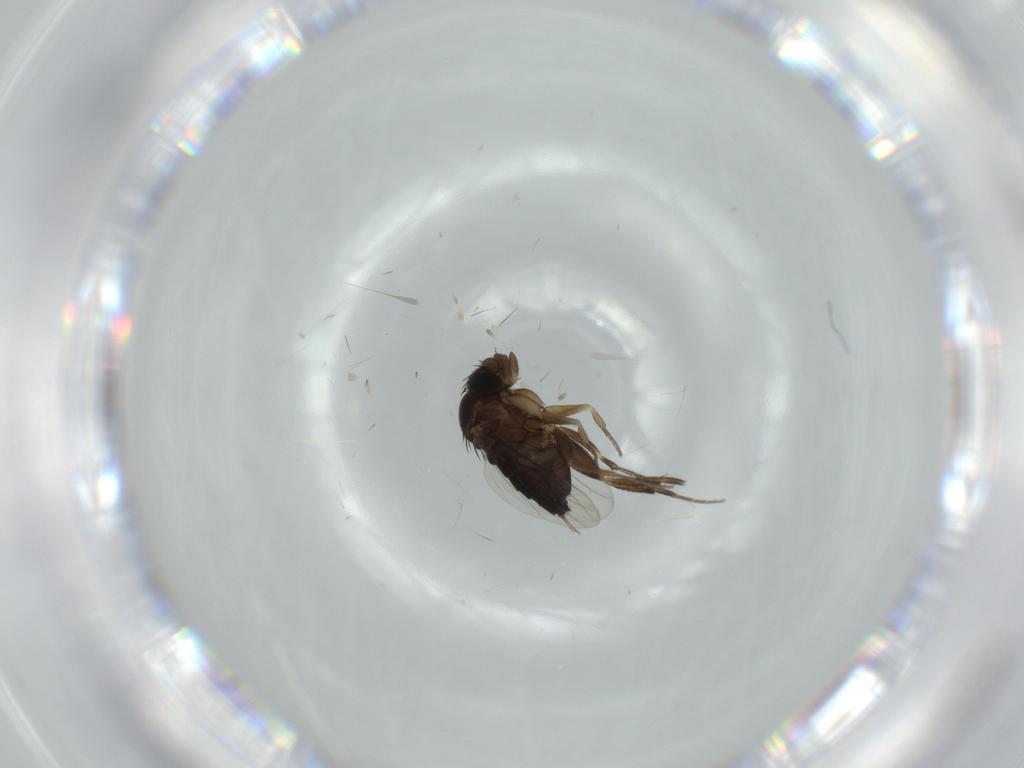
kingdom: Animalia
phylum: Arthropoda
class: Insecta
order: Diptera
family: Phoridae
